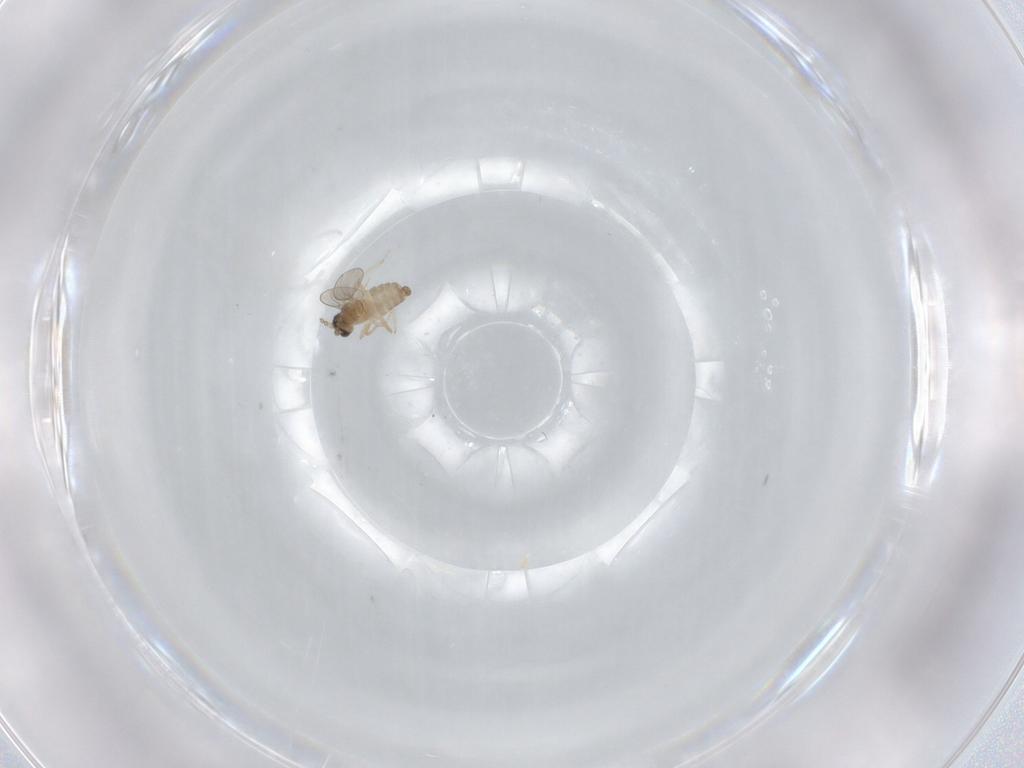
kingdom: Animalia
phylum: Arthropoda
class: Insecta
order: Diptera
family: Cecidomyiidae
